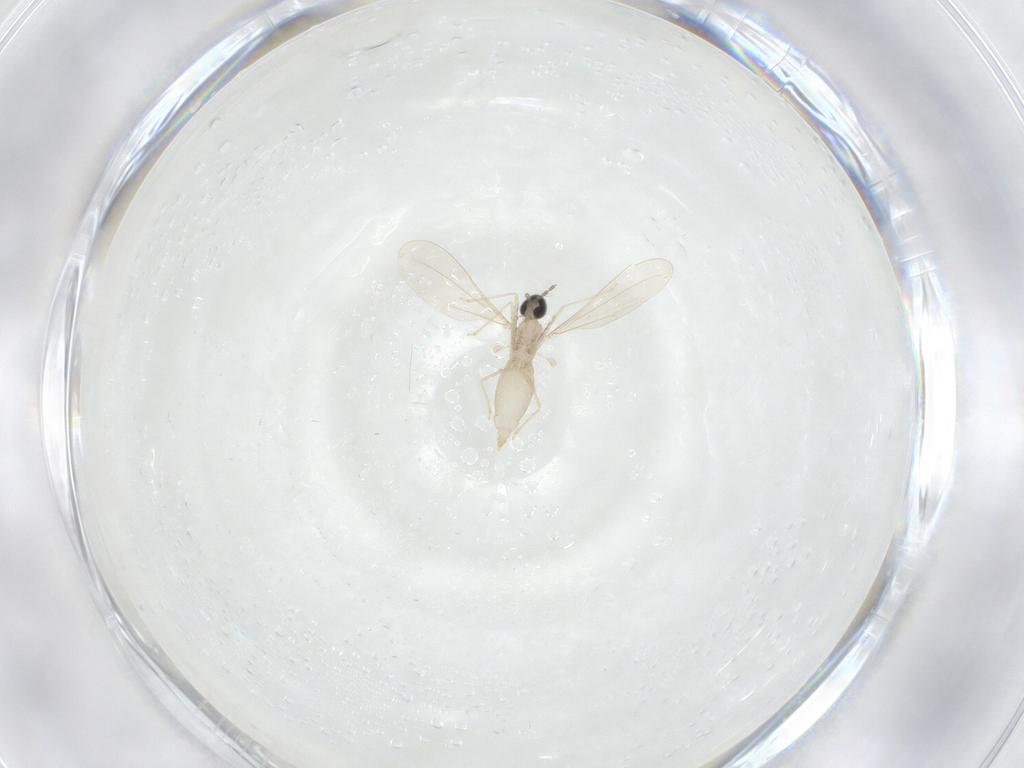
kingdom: Animalia
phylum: Arthropoda
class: Insecta
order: Diptera
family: Cecidomyiidae
